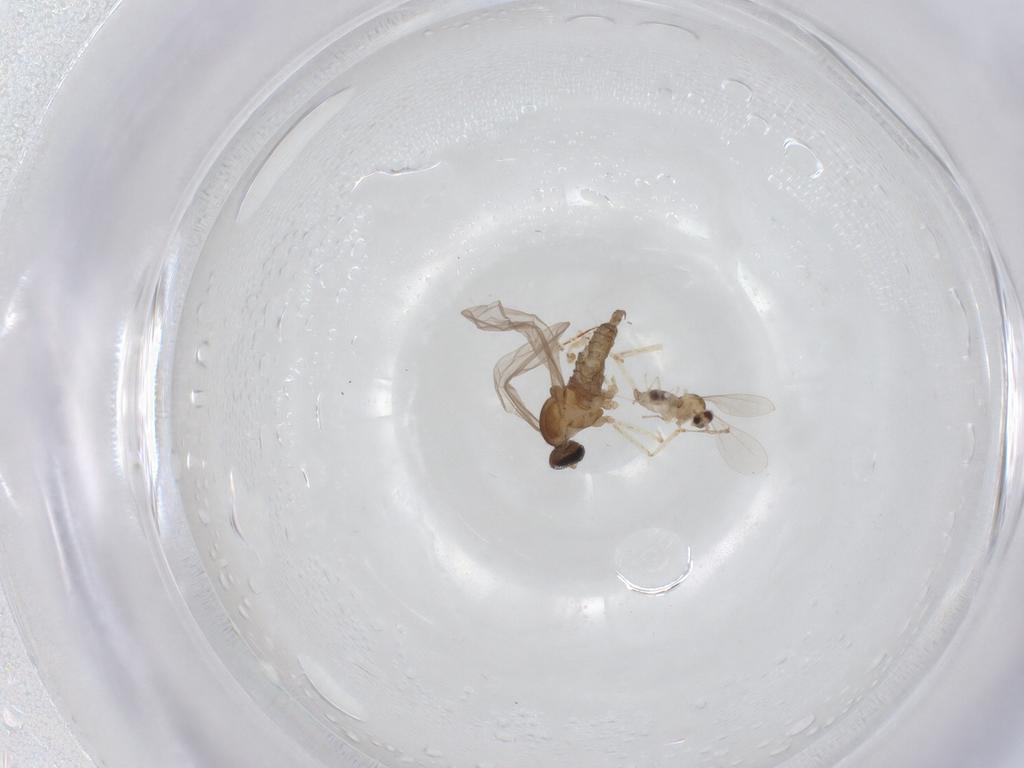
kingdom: Animalia
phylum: Arthropoda
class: Insecta
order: Diptera
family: Cecidomyiidae
